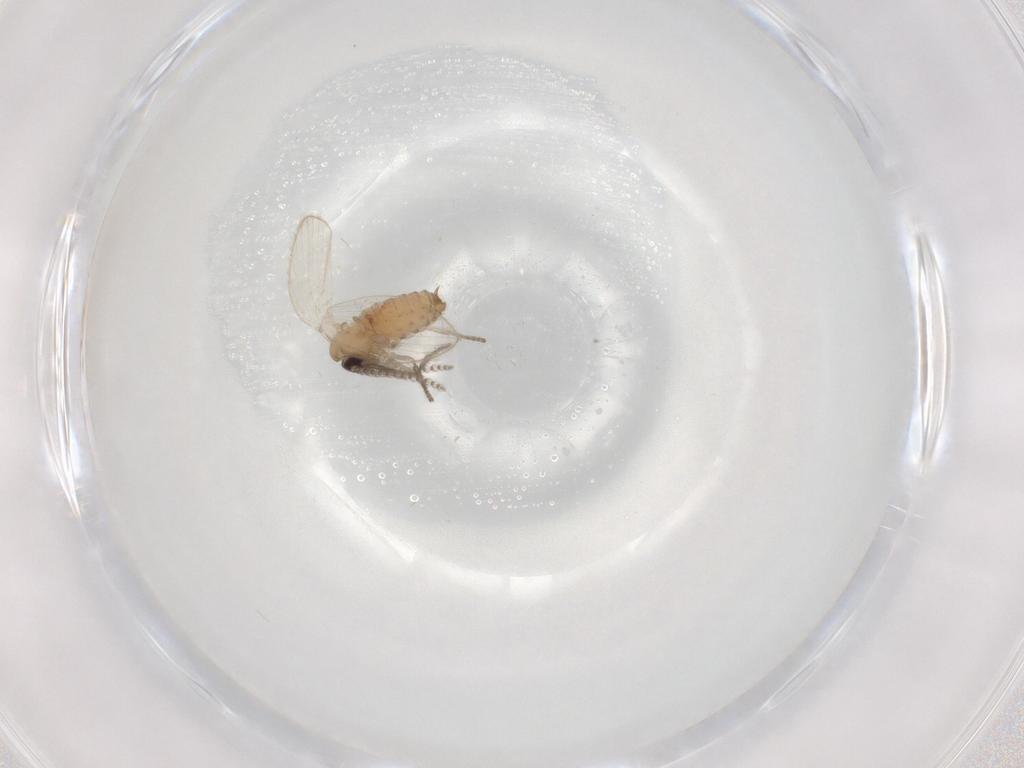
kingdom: Animalia
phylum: Arthropoda
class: Insecta
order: Diptera
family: Psychodidae
